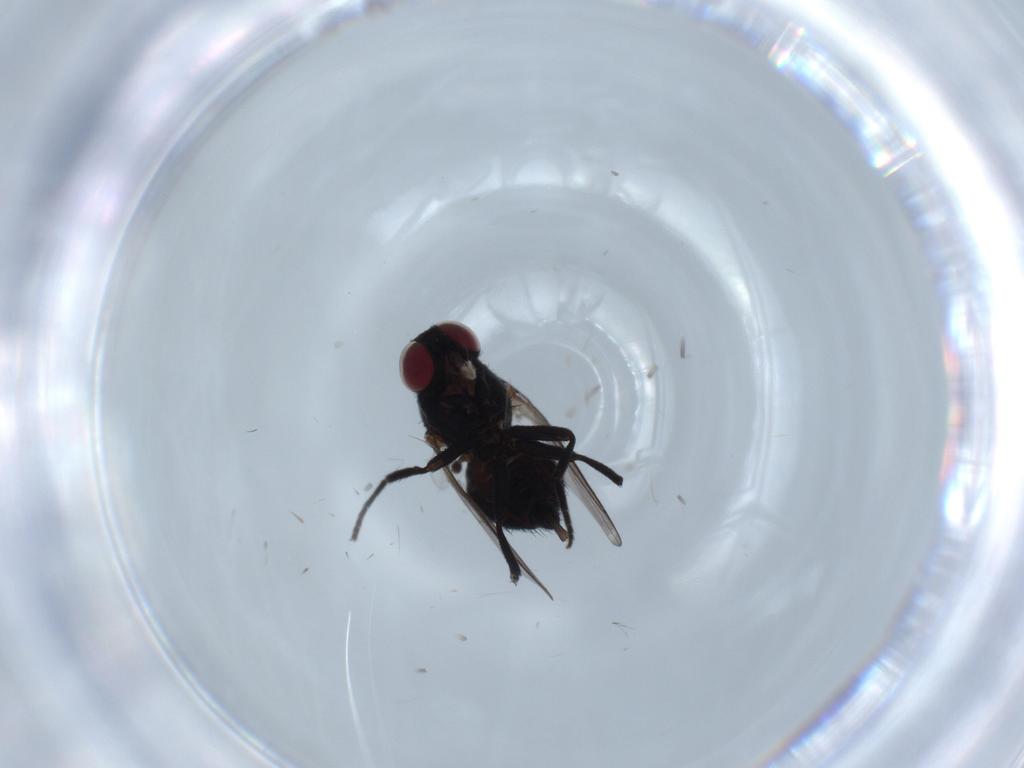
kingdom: Animalia
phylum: Arthropoda
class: Insecta
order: Diptera
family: Agromyzidae
